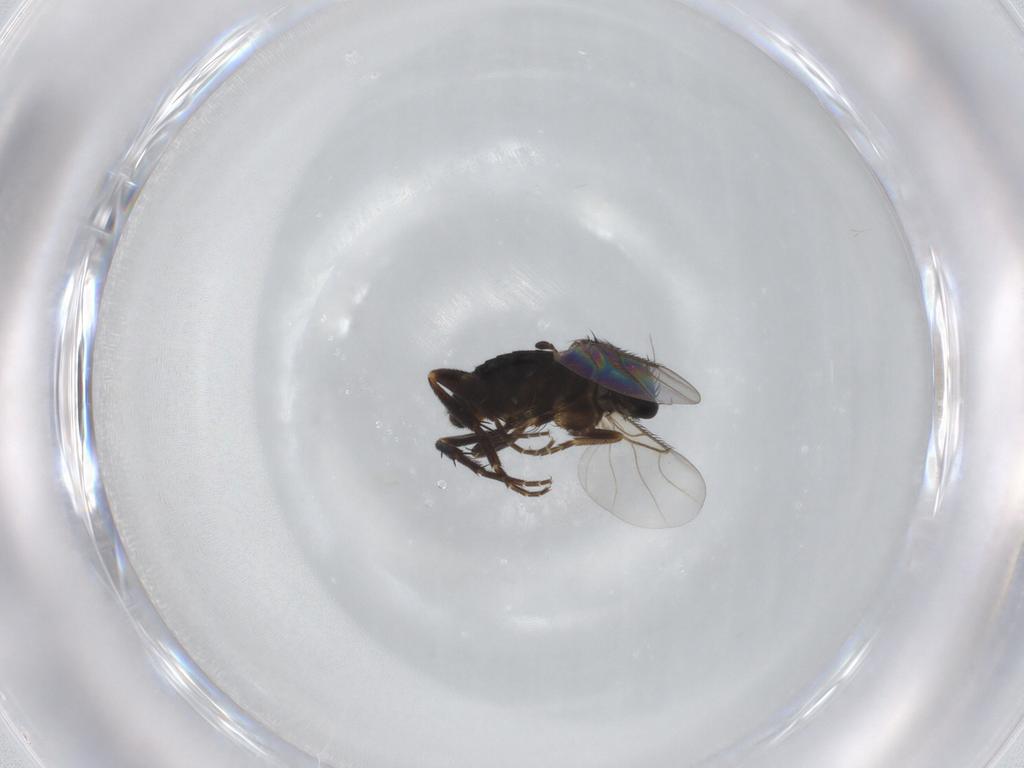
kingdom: Animalia
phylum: Arthropoda
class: Insecta
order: Diptera
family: Phoridae
